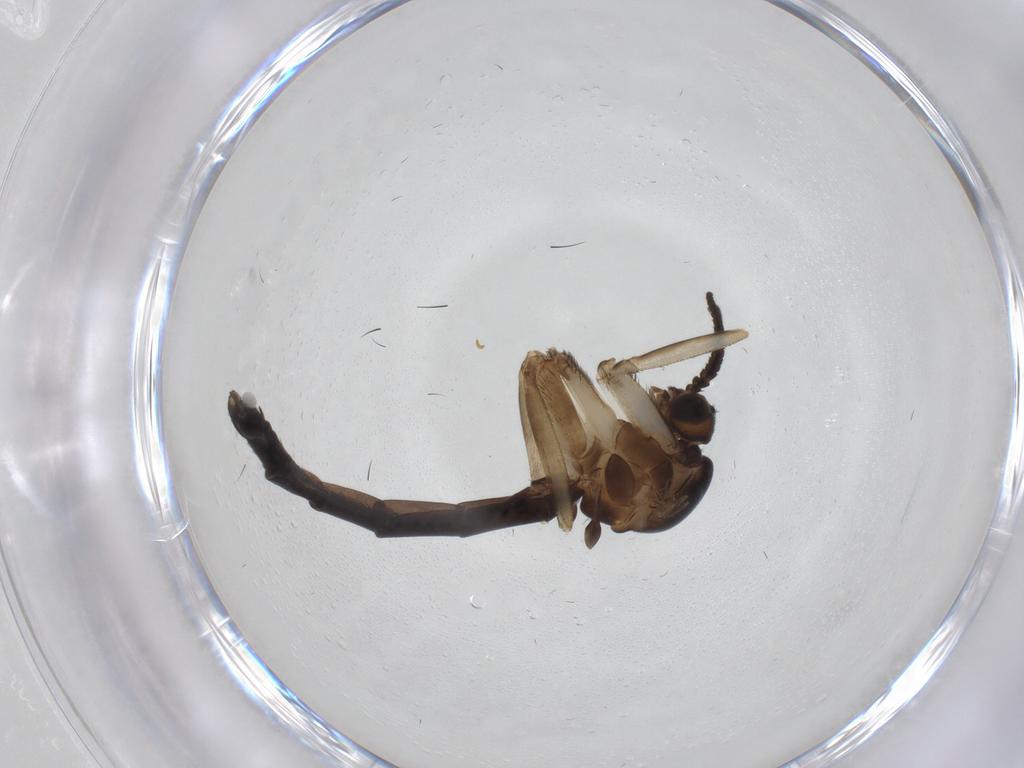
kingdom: Animalia
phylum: Arthropoda
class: Insecta
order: Diptera
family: Keroplatidae
